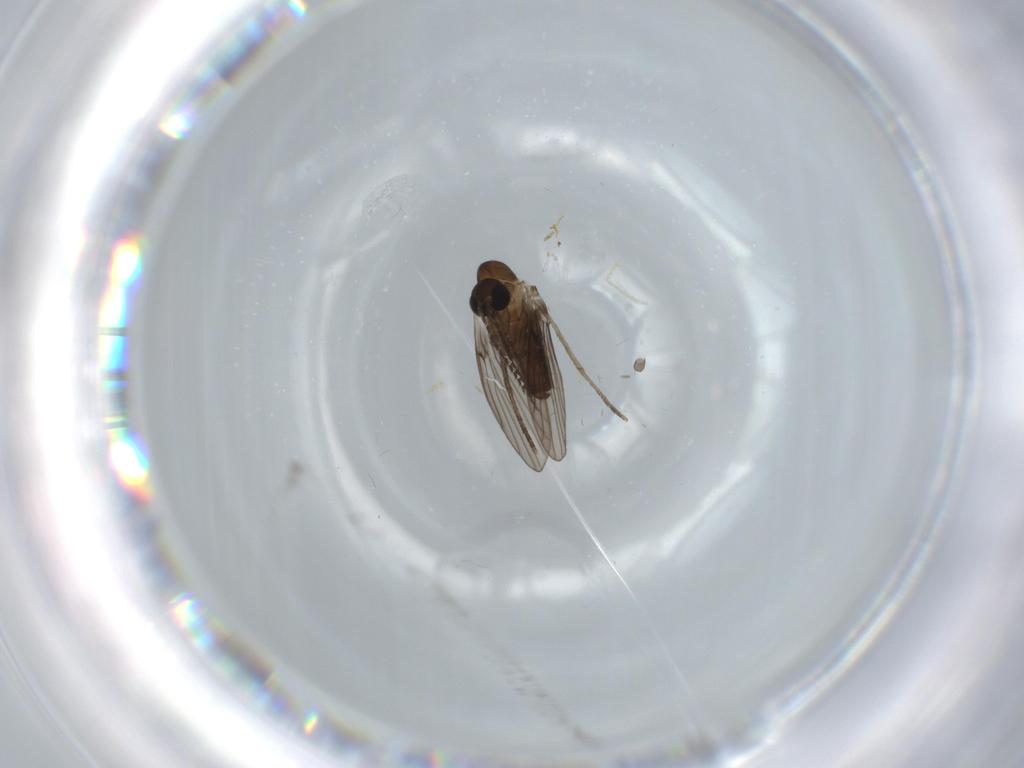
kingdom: Animalia
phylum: Arthropoda
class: Insecta
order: Diptera
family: Psychodidae
